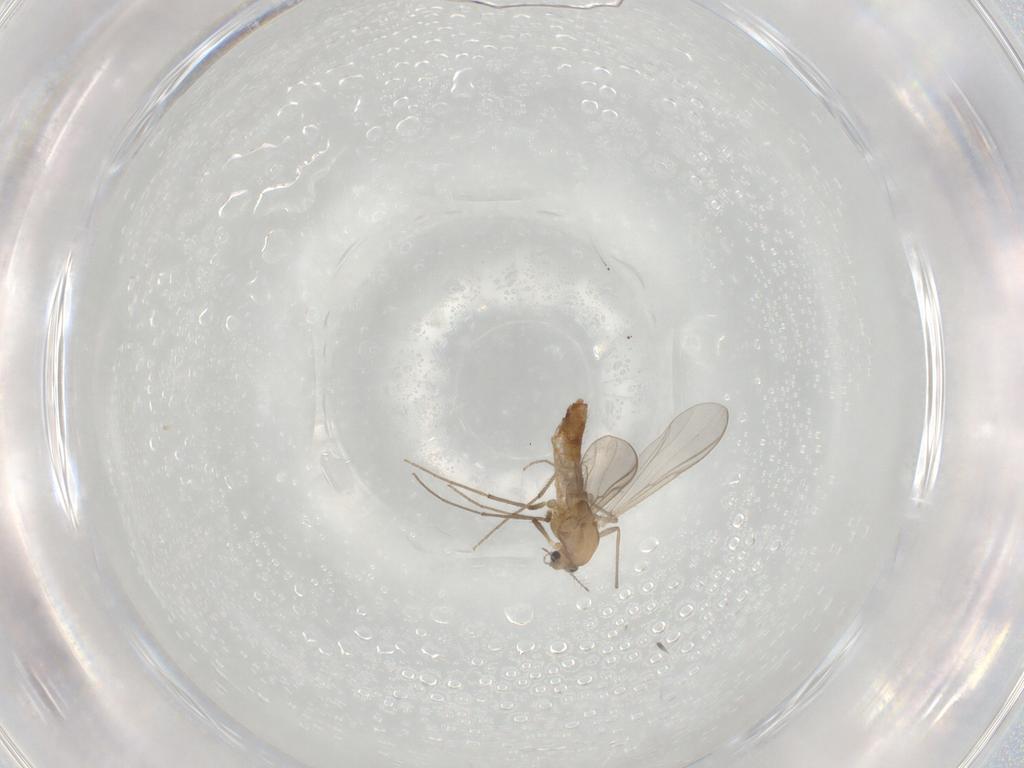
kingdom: Animalia
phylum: Arthropoda
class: Insecta
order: Diptera
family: Chironomidae
